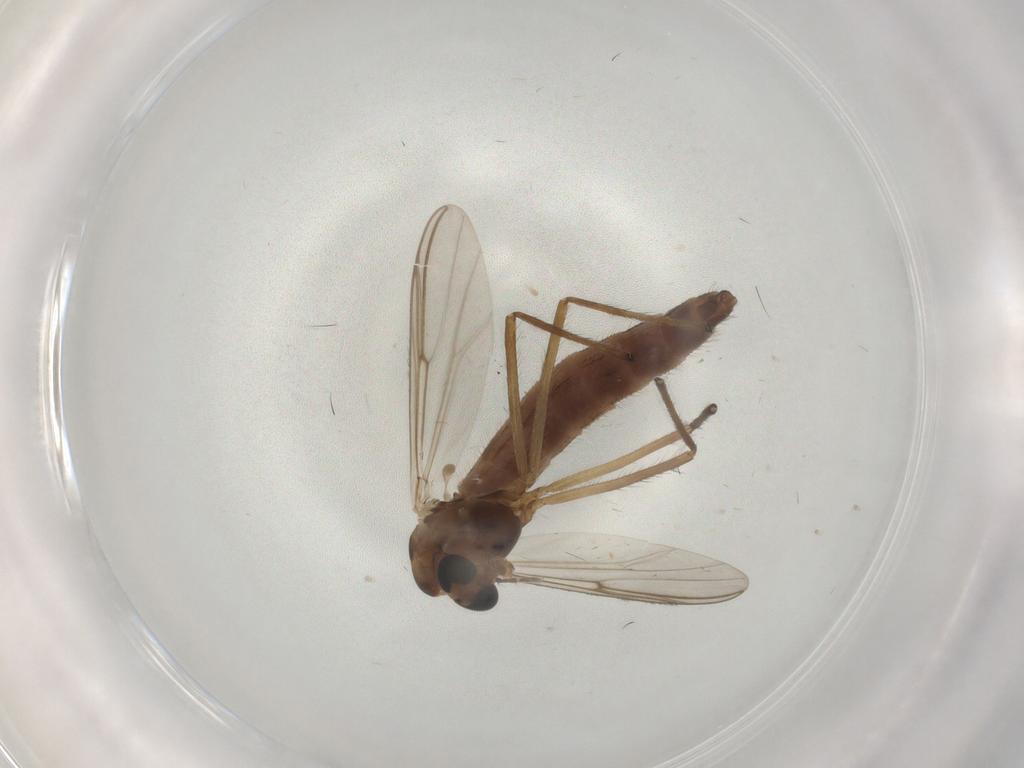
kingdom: Animalia
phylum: Arthropoda
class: Insecta
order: Diptera
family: Chironomidae
